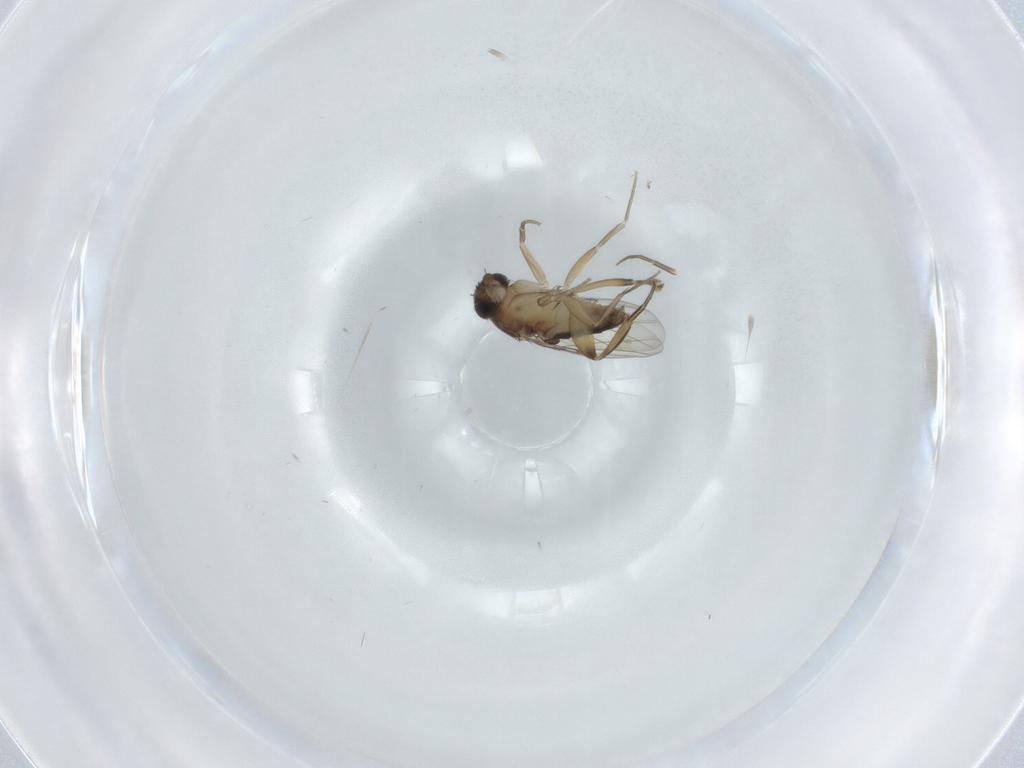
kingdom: Animalia
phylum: Arthropoda
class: Insecta
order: Diptera
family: Phoridae
